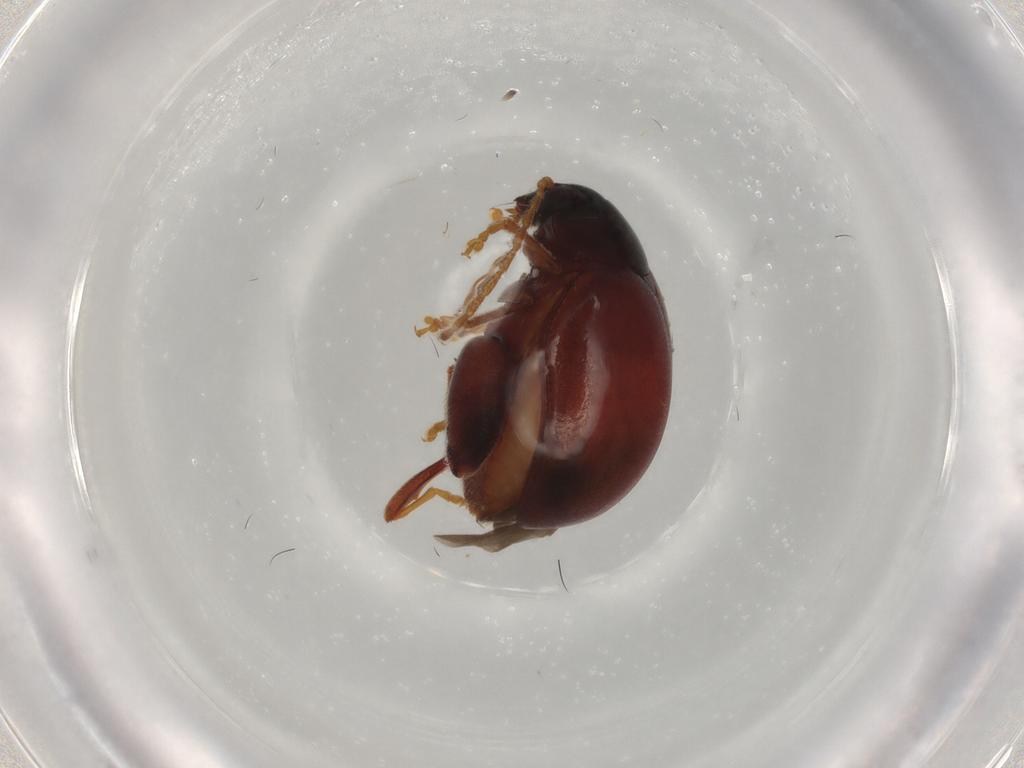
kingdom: Animalia
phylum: Arthropoda
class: Insecta
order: Coleoptera
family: Chrysomelidae
